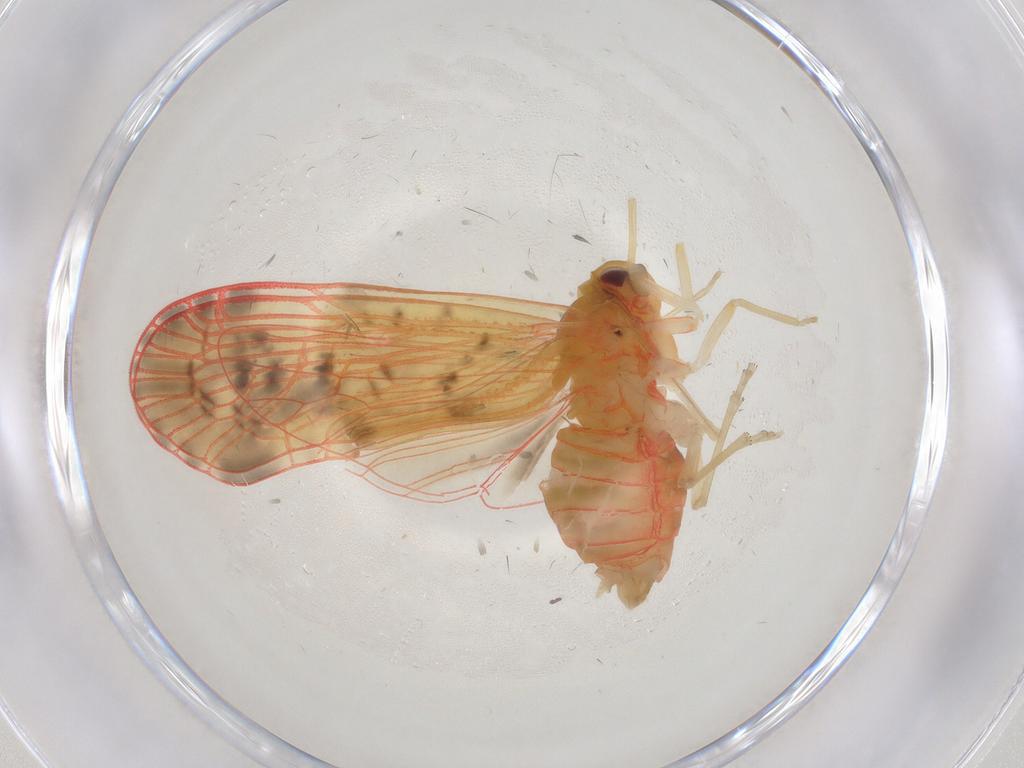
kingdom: Animalia
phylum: Arthropoda
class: Insecta
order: Hemiptera
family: Derbidae
